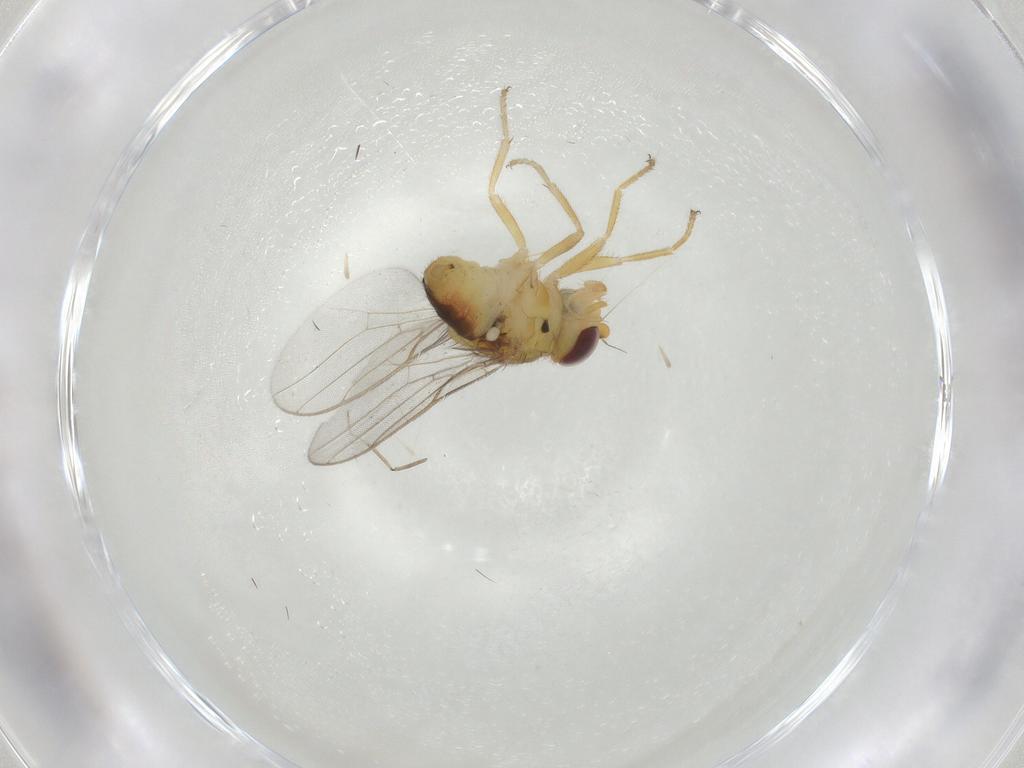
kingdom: Animalia
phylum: Arthropoda
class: Insecta
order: Diptera
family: Chloropidae
